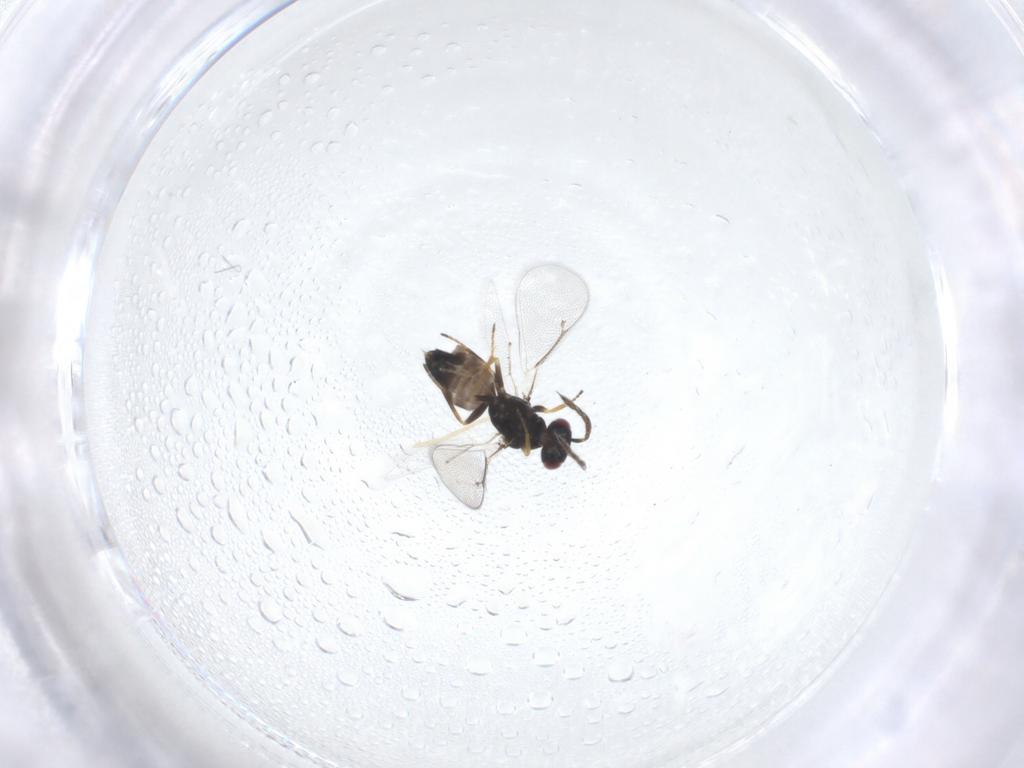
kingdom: Animalia
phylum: Arthropoda
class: Insecta
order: Hymenoptera
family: Eulophidae
